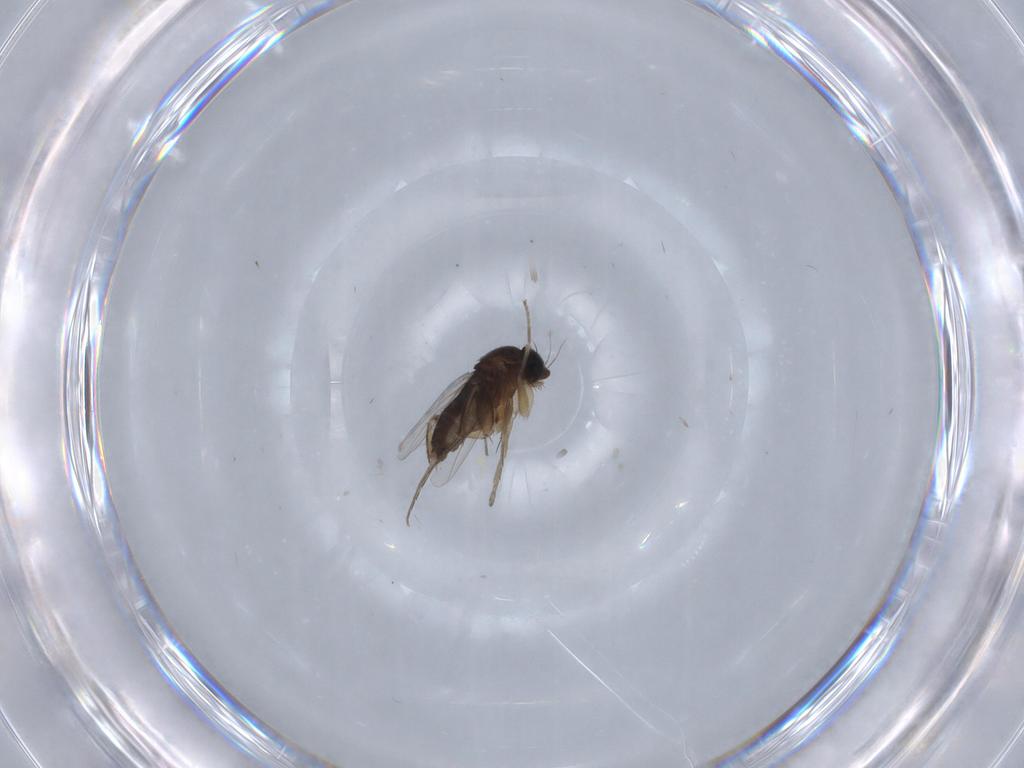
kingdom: Animalia
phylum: Arthropoda
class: Insecta
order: Diptera
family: Phoridae
